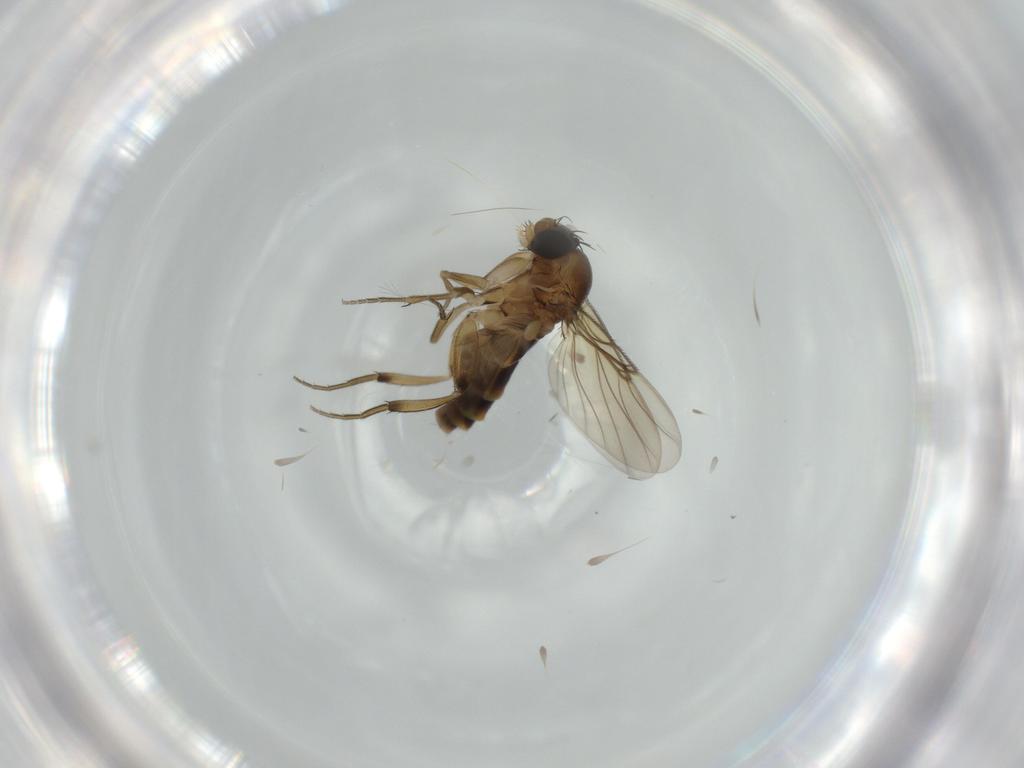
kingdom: Animalia
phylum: Arthropoda
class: Insecta
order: Diptera
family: Phoridae
